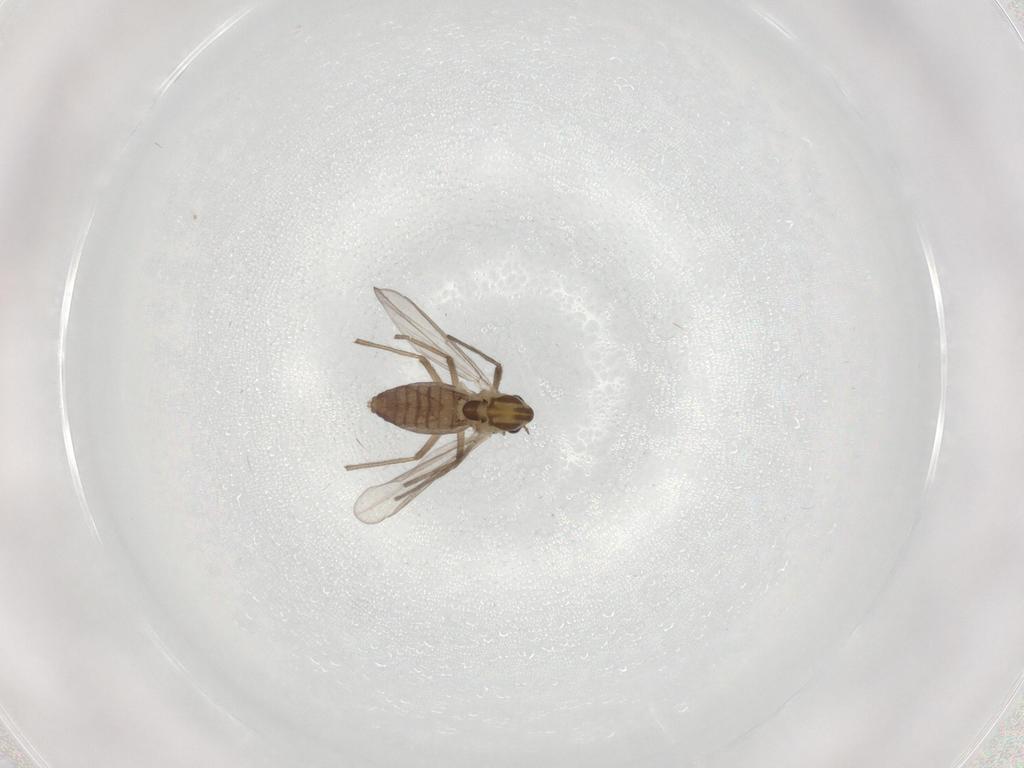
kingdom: Animalia
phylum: Arthropoda
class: Insecta
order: Diptera
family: Chironomidae
